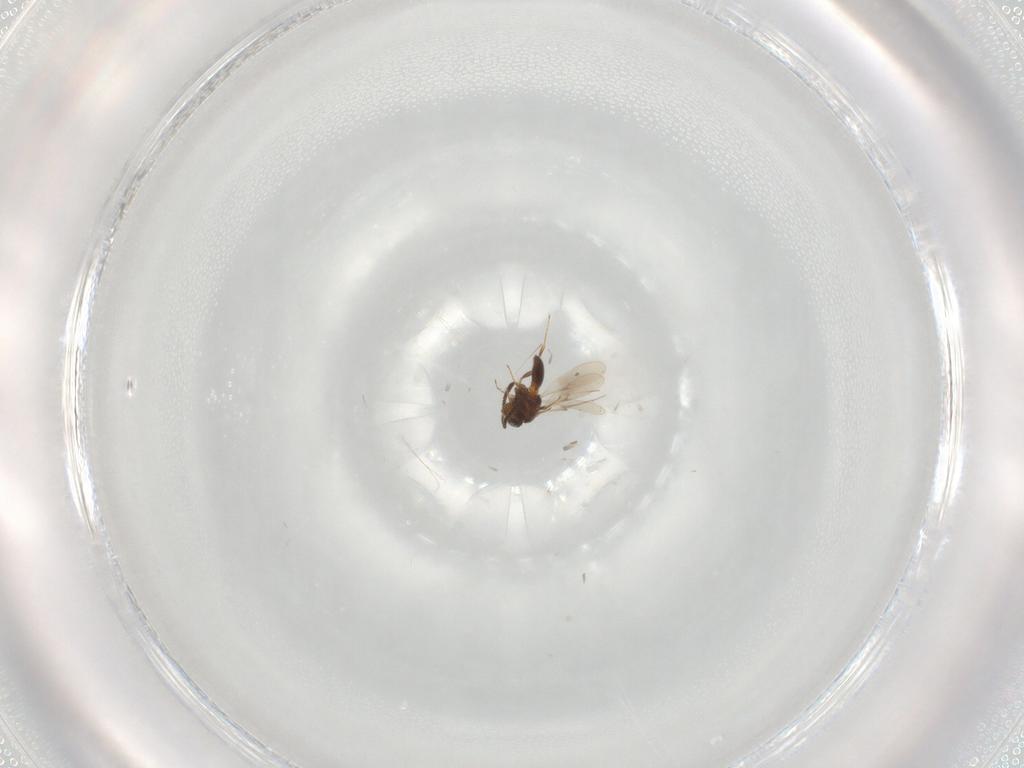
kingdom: Animalia
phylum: Arthropoda
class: Insecta
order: Hymenoptera
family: Scelionidae
